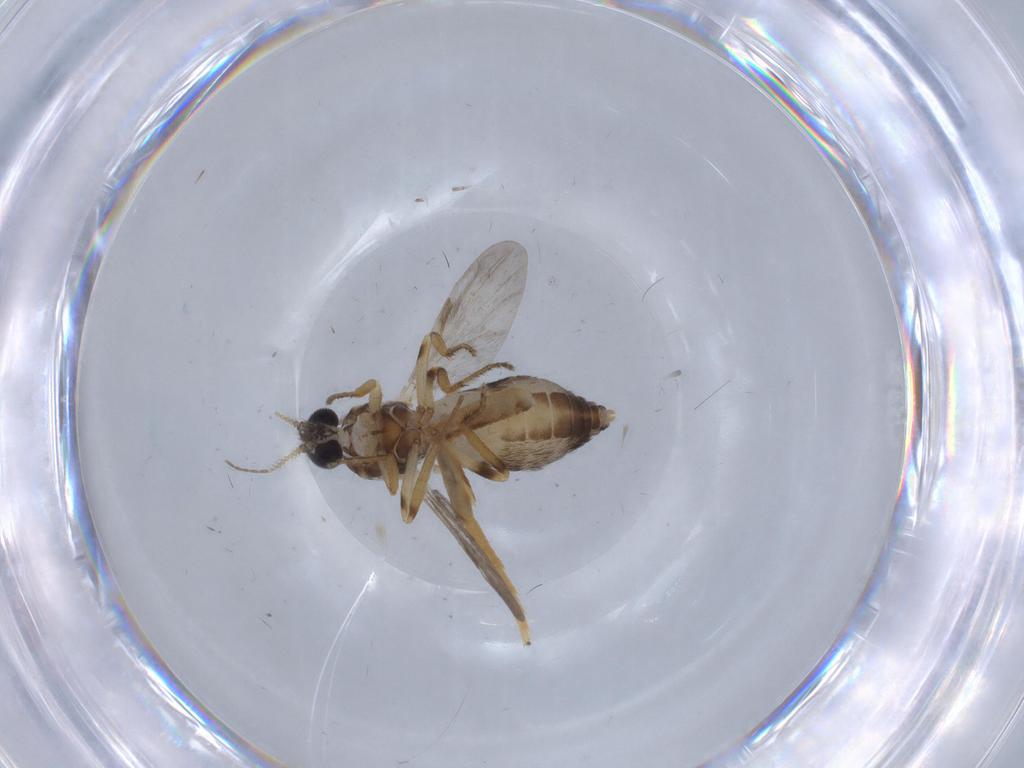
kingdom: Animalia
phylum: Arthropoda
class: Insecta
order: Diptera
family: Ceratopogonidae
